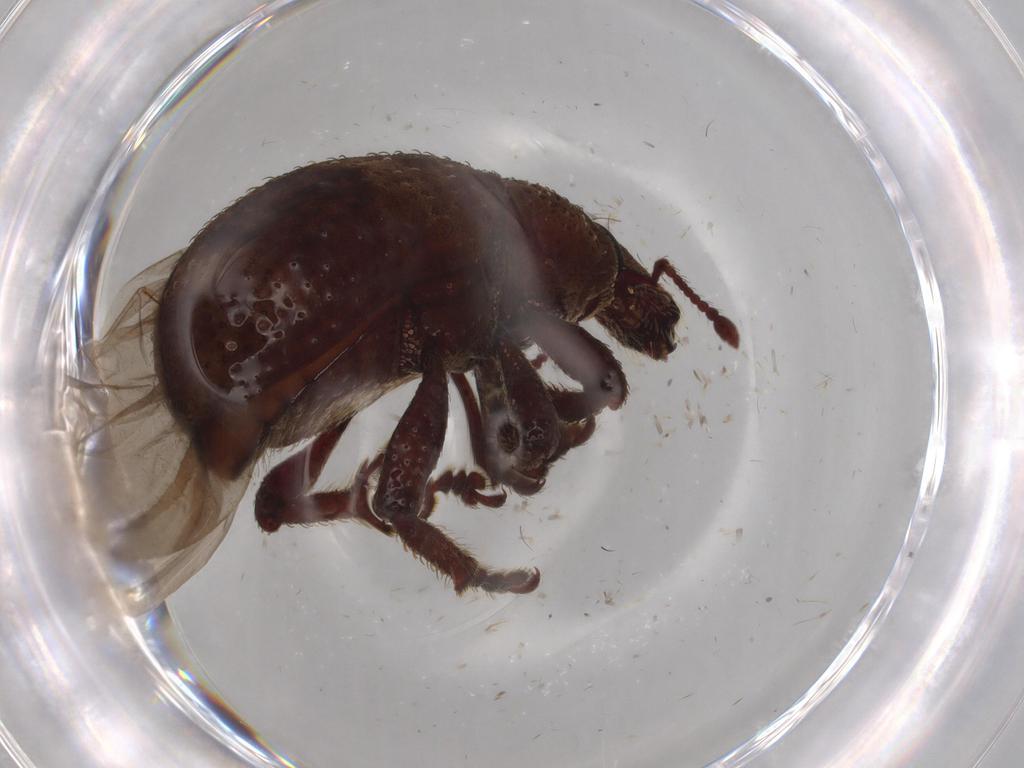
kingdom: Animalia
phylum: Arthropoda
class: Insecta
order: Coleoptera
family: Curculionidae
